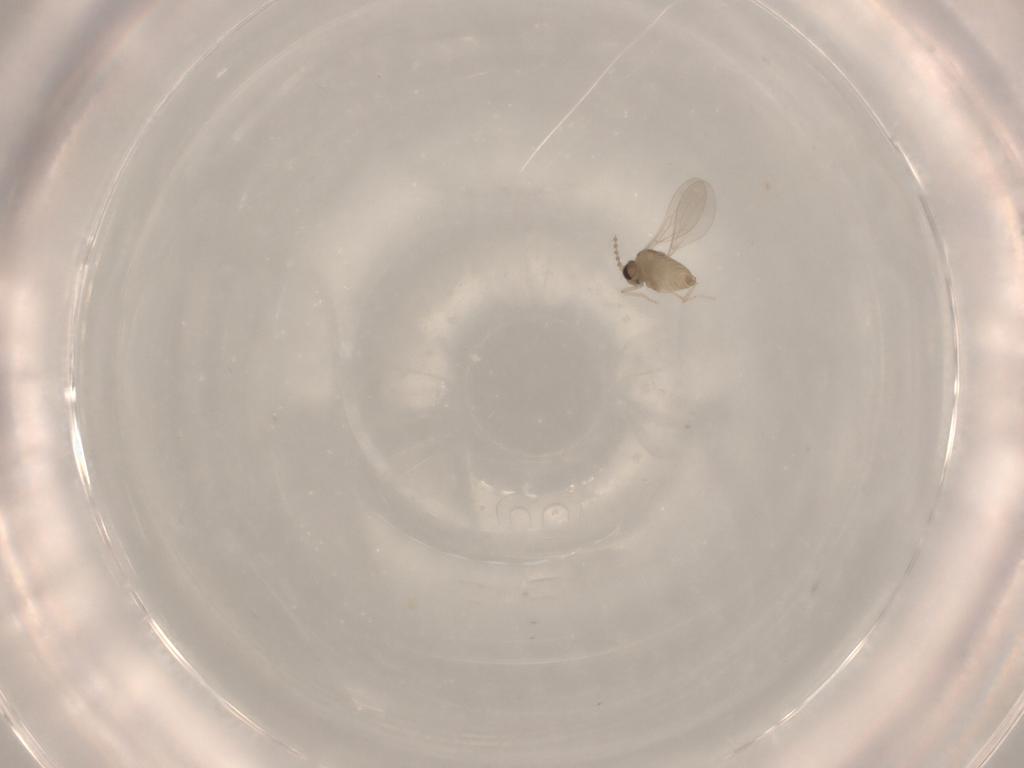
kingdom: Animalia
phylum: Arthropoda
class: Insecta
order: Diptera
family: Cecidomyiidae
